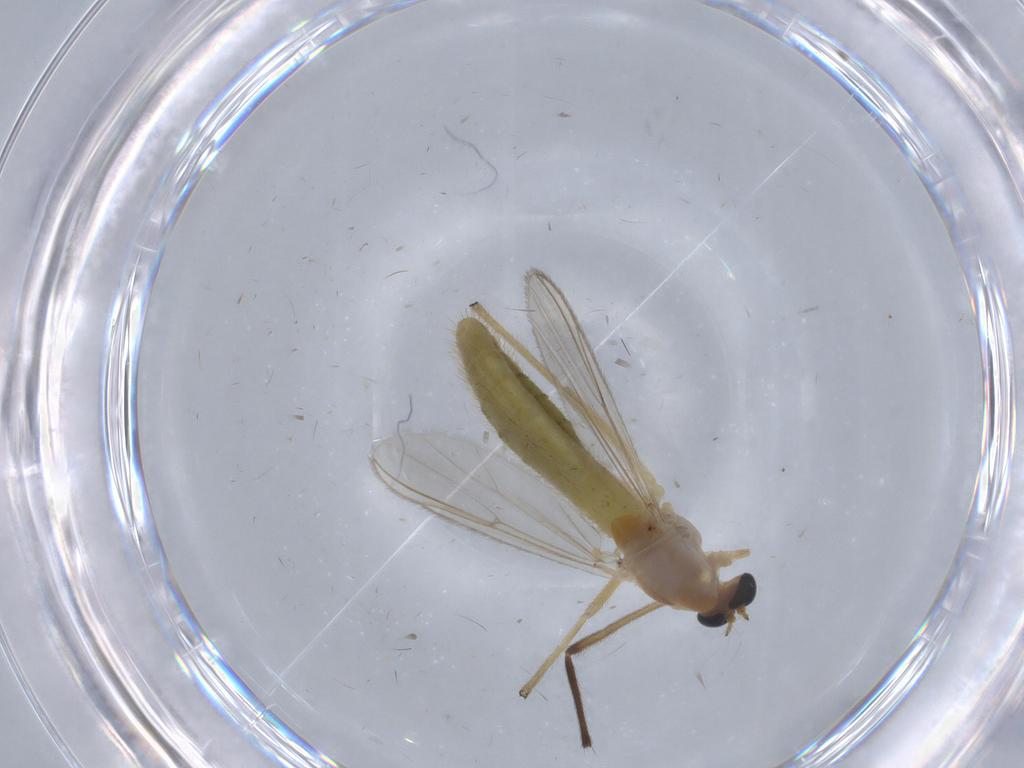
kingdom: Animalia
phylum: Arthropoda
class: Insecta
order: Diptera
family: Chironomidae
